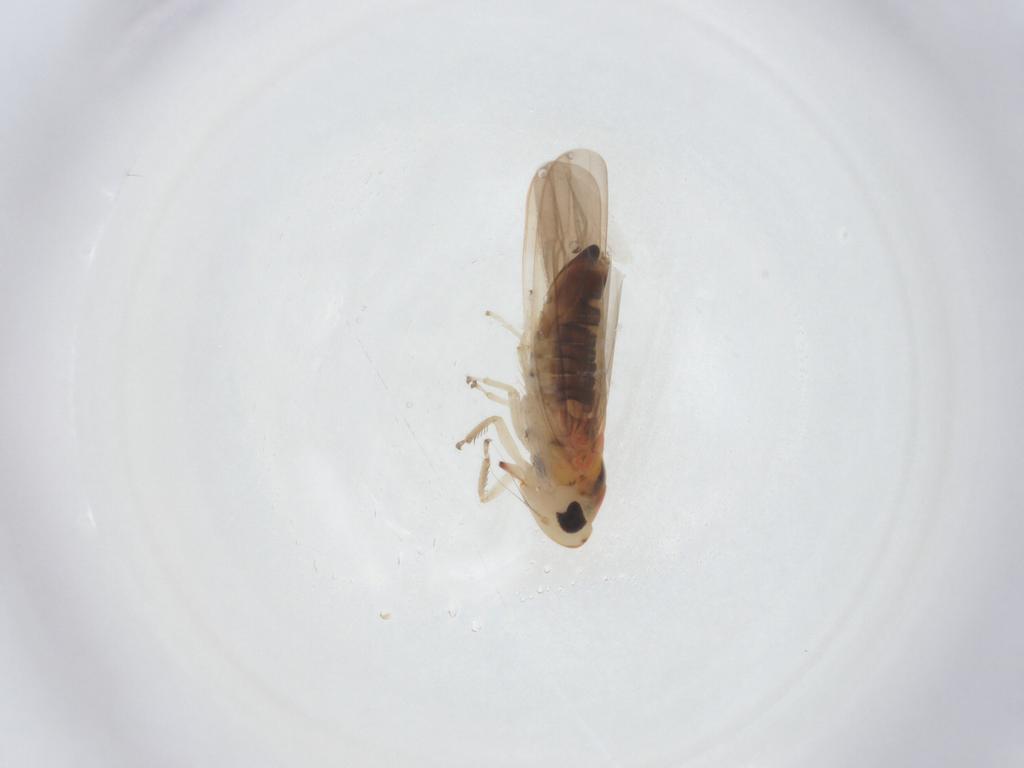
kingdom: Animalia
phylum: Arthropoda
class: Insecta
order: Hemiptera
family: Cicadellidae
